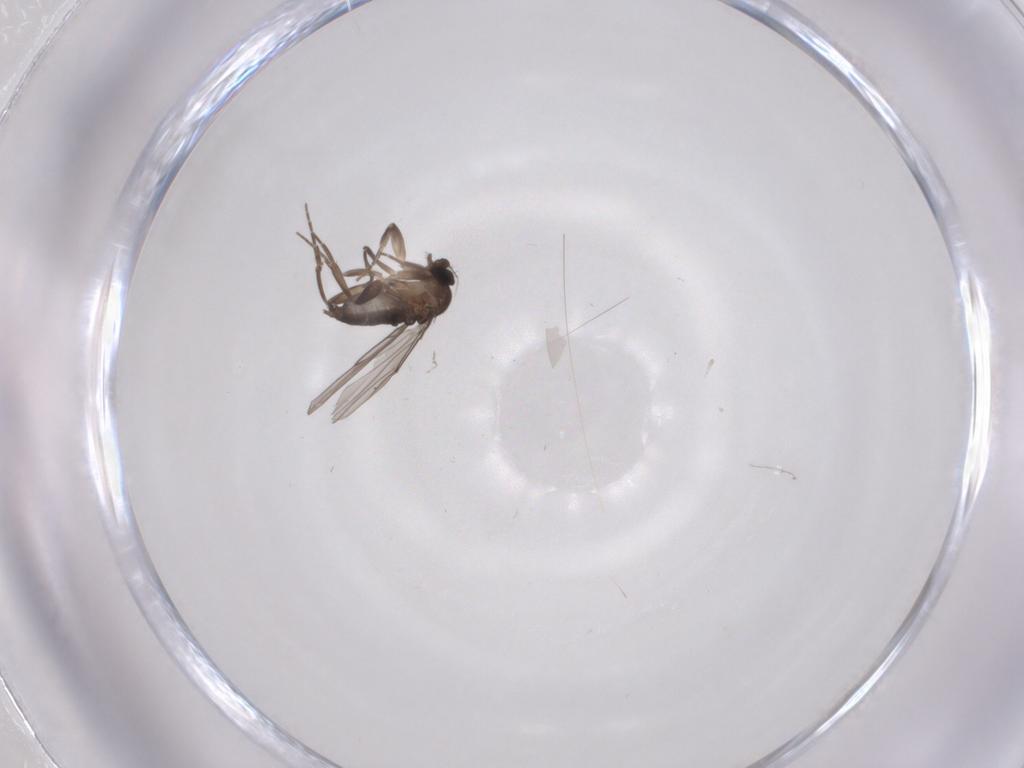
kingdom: Animalia
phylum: Arthropoda
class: Insecta
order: Diptera
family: Phoridae
